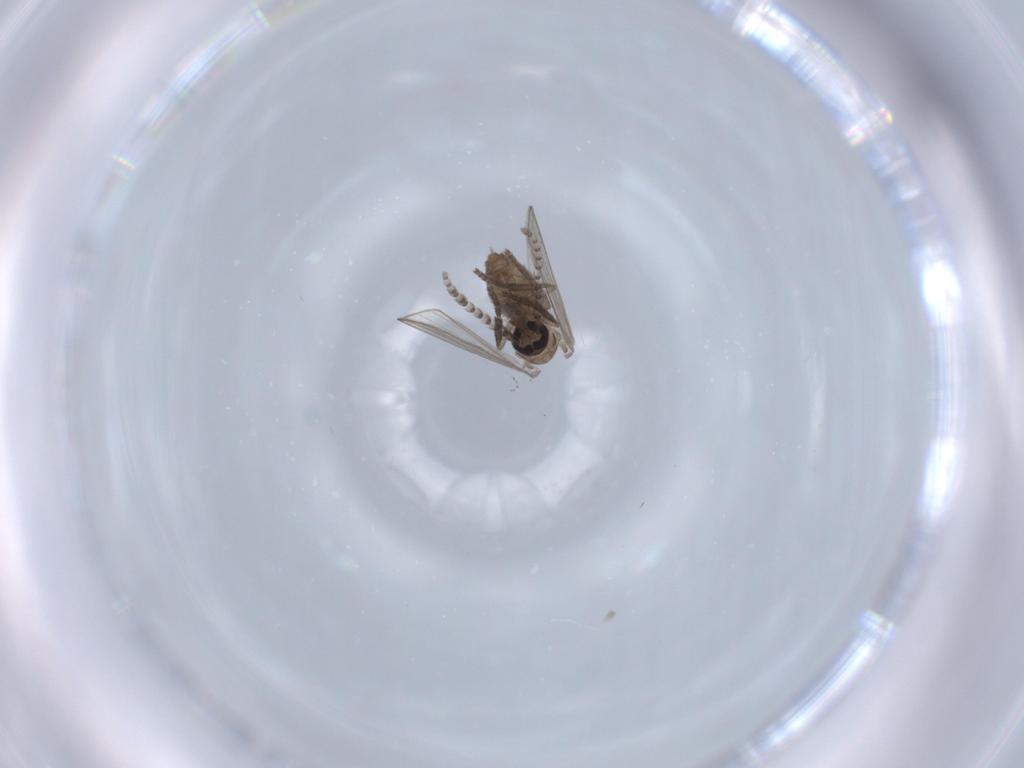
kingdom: Animalia
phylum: Arthropoda
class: Insecta
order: Diptera
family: Psychodidae
